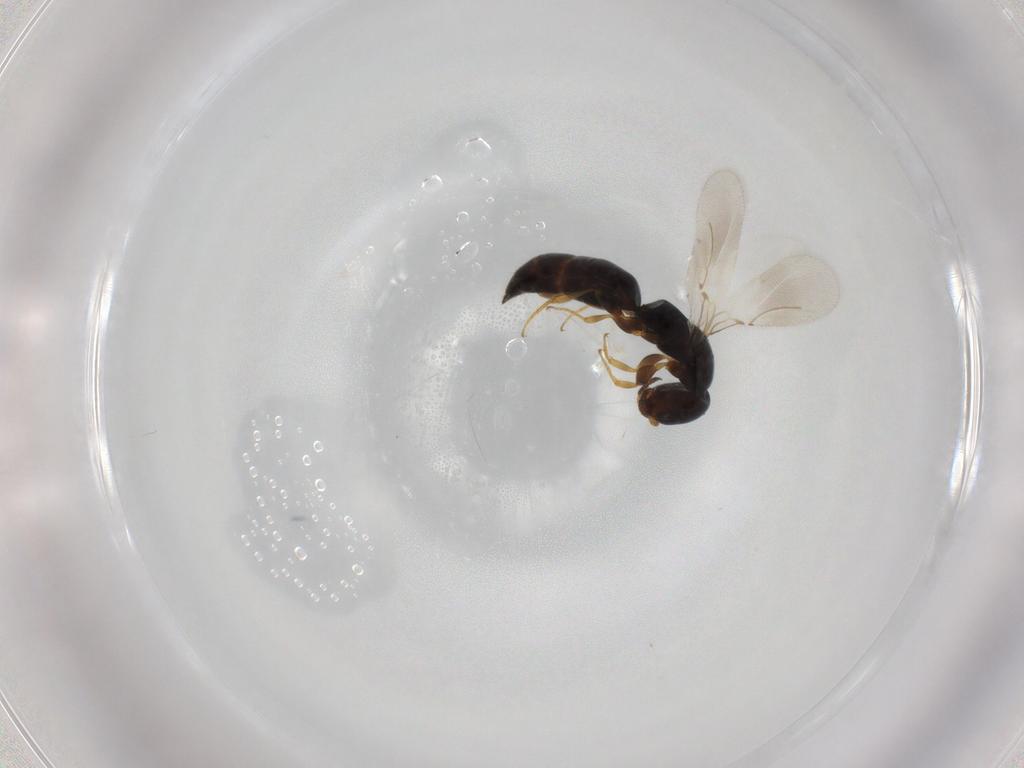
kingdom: Animalia
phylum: Arthropoda
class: Insecta
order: Hymenoptera
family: Bethylidae
